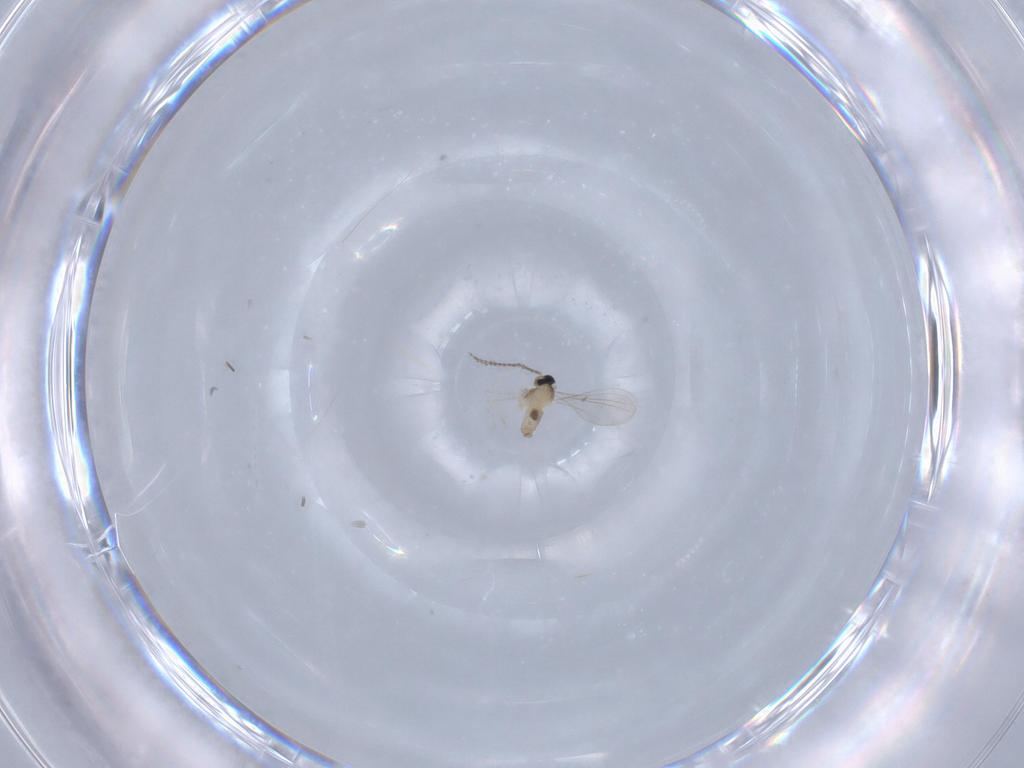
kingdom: Animalia
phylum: Arthropoda
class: Insecta
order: Diptera
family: Cecidomyiidae
